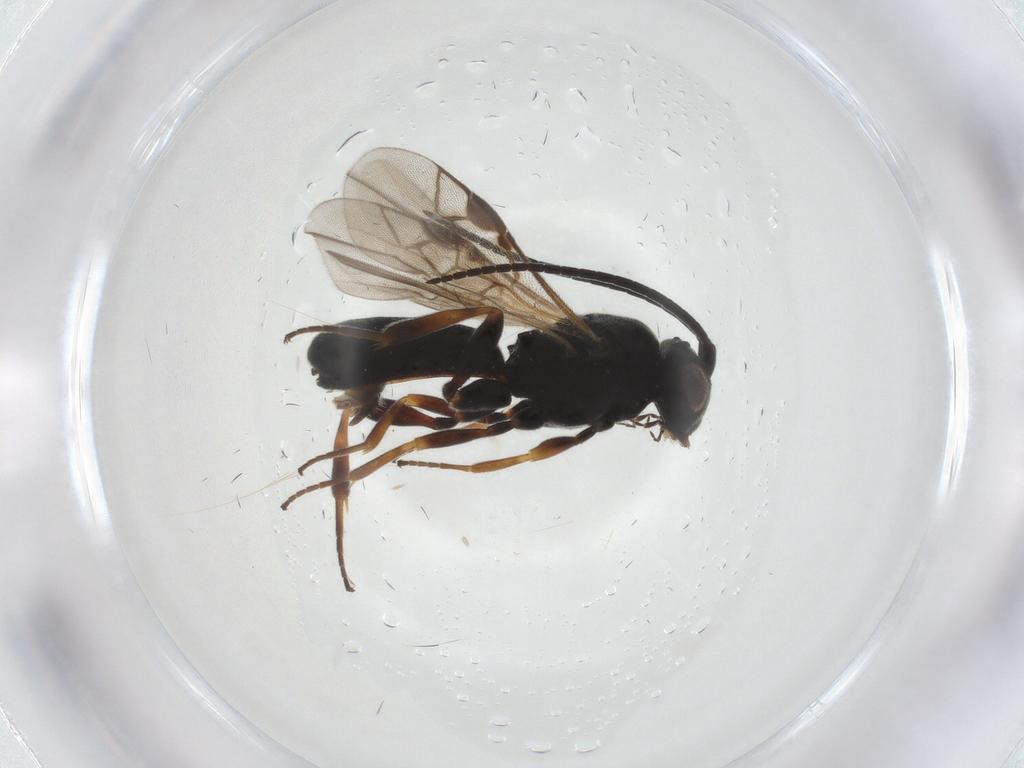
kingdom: Animalia
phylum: Arthropoda
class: Insecta
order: Hymenoptera
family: Braconidae
